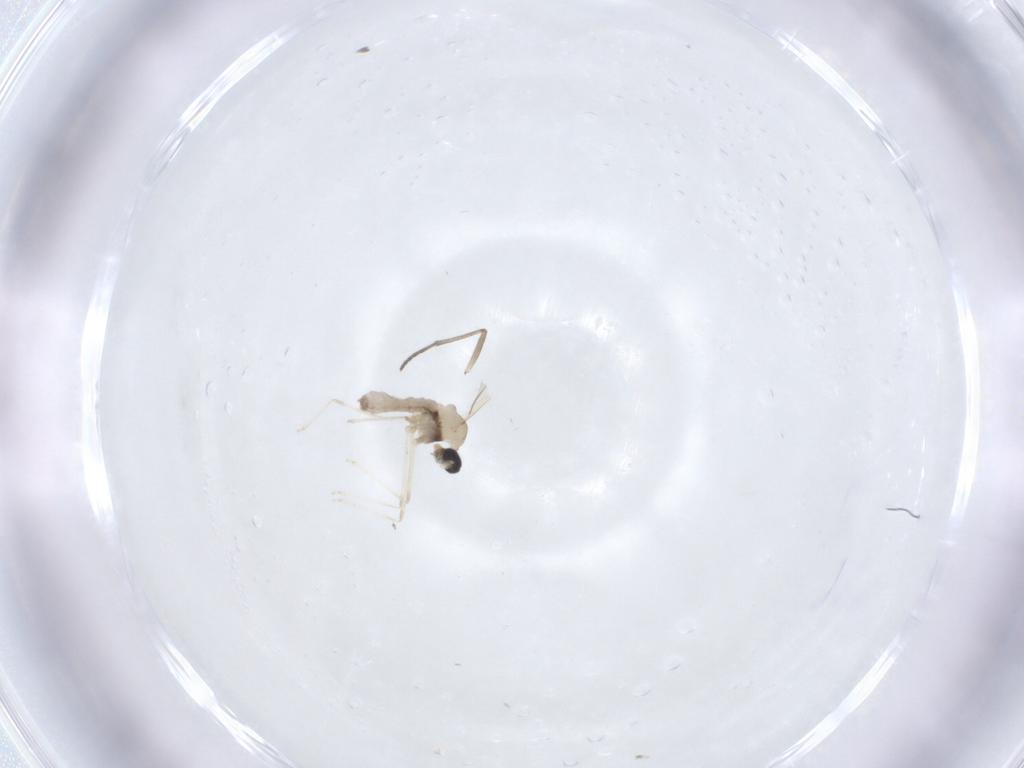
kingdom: Animalia
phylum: Arthropoda
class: Insecta
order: Diptera
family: Cecidomyiidae
